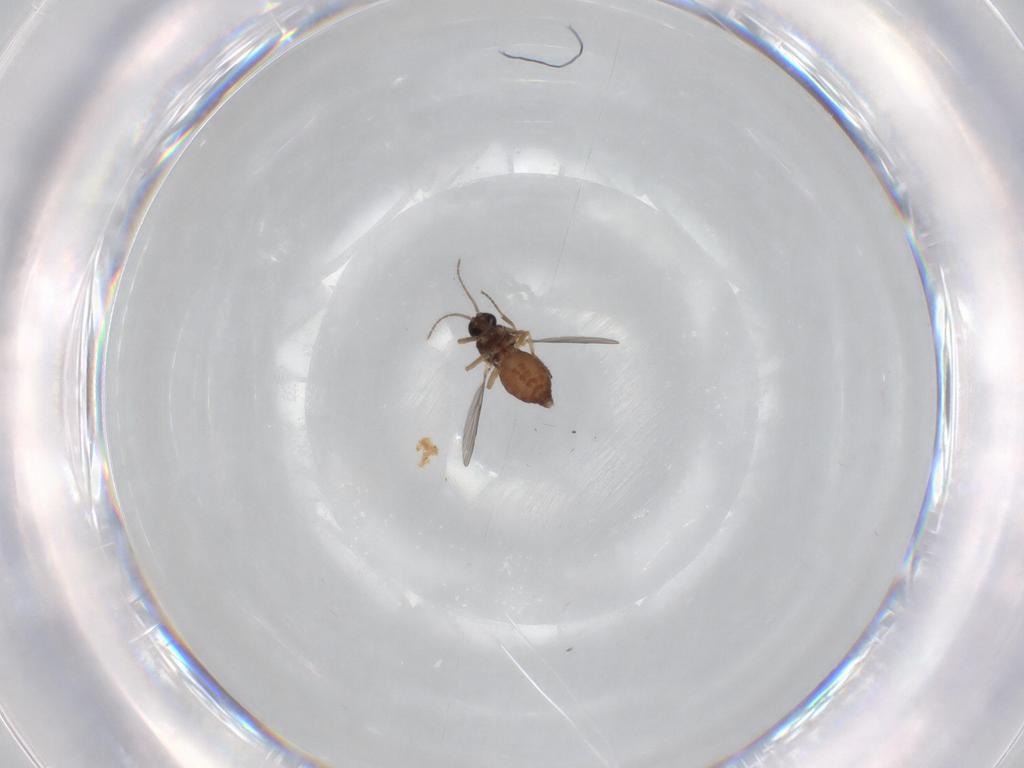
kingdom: Animalia
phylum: Arthropoda
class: Insecta
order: Diptera
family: Ceratopogonidae
